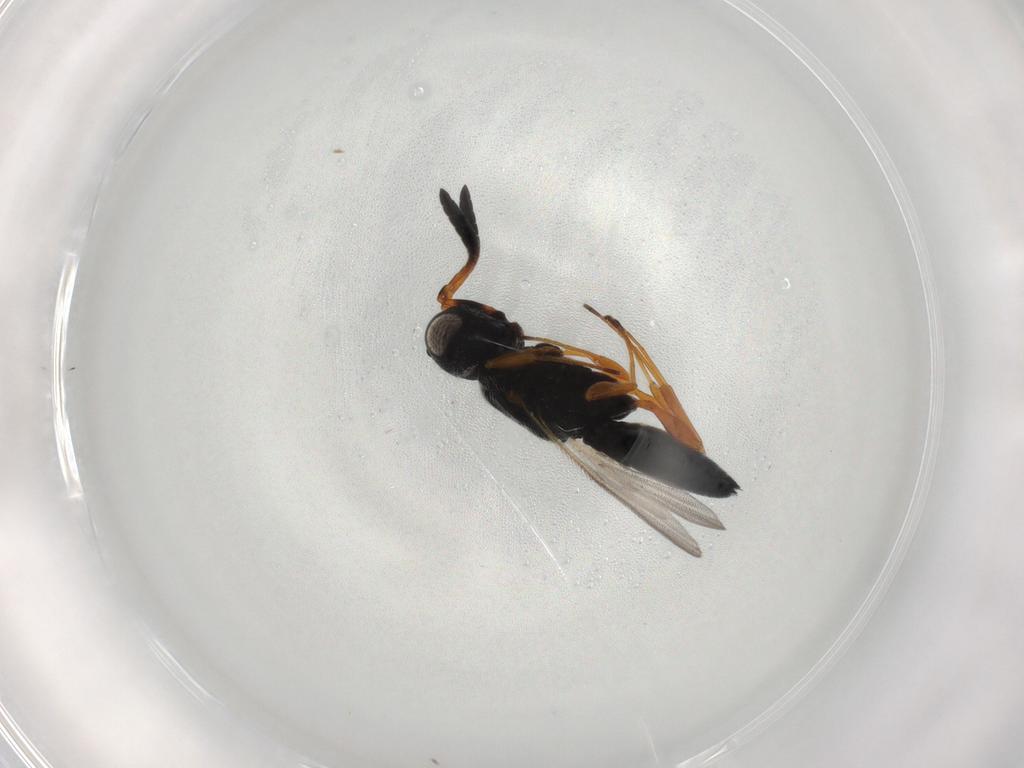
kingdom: Animalia
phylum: Arthropoda
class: Insecta
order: Hymenoptera
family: Scelionidae
